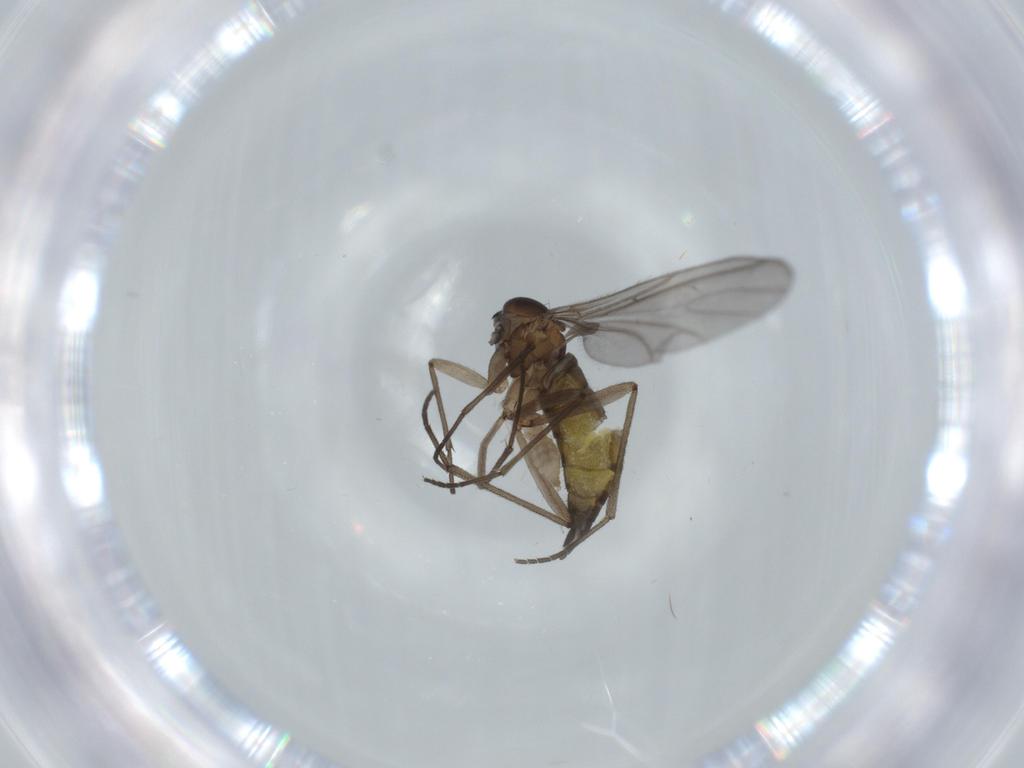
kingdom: Animalia
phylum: Arthropoda
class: Insecta
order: Diptera
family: Sciaridae
